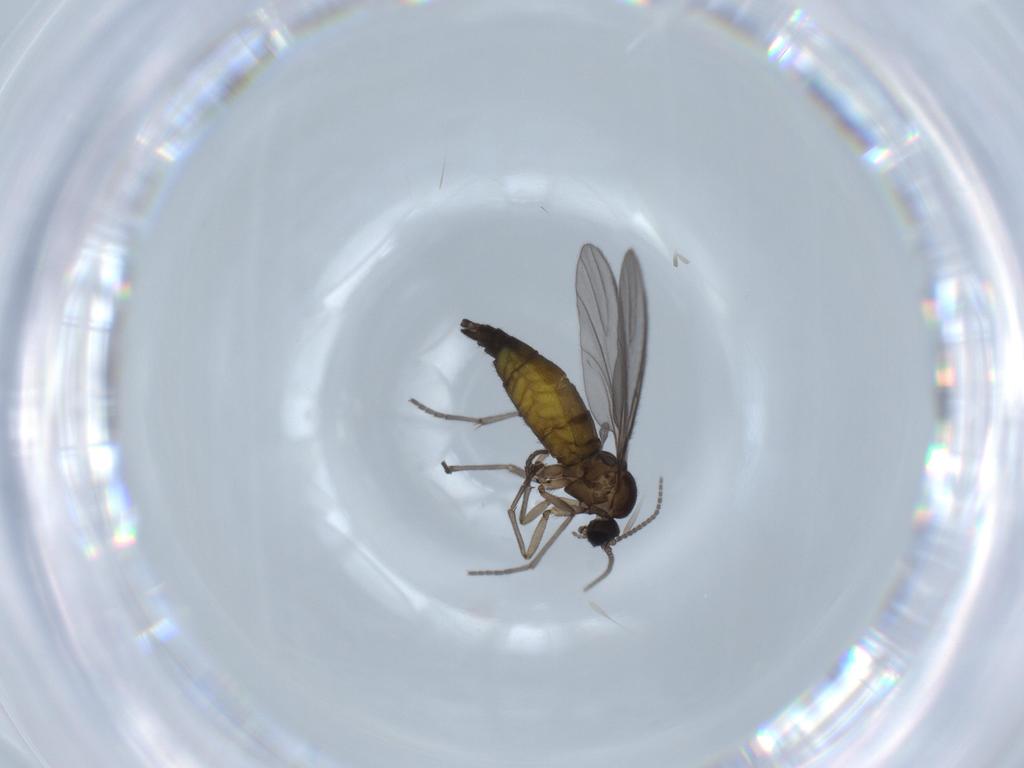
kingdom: Animalia
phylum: Arthropoda
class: Insecta
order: Diptera
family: Sciaridae
